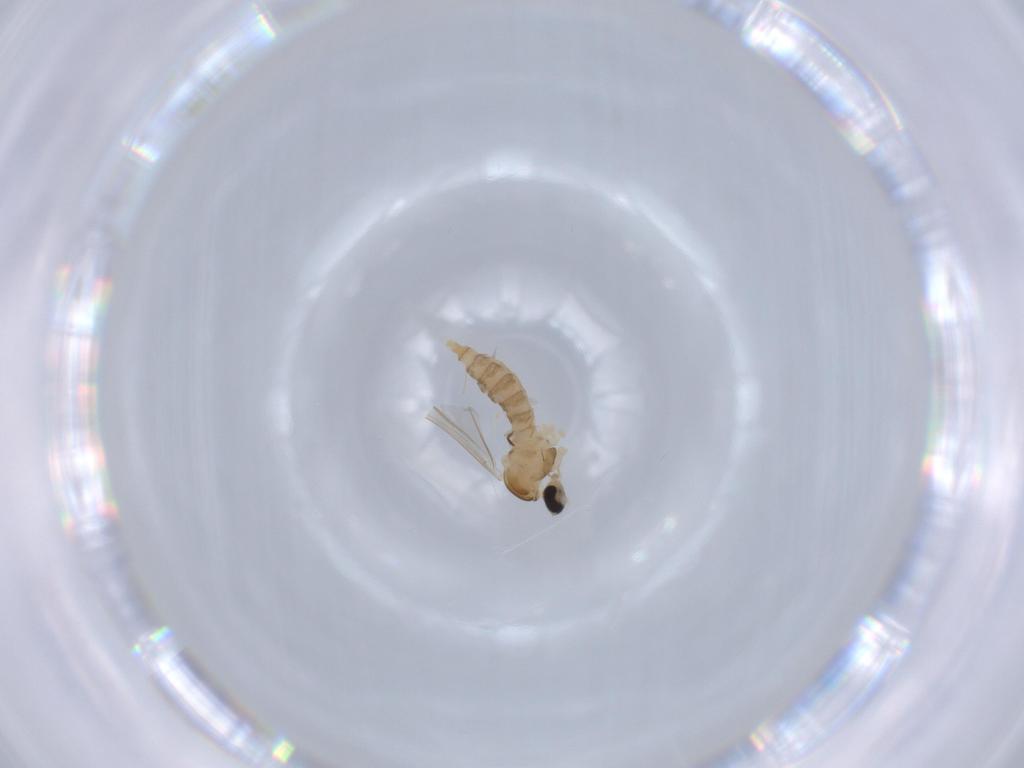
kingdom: Animalia
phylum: Arthropoda
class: Insecta
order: Diptera
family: Cecidomyiidae
